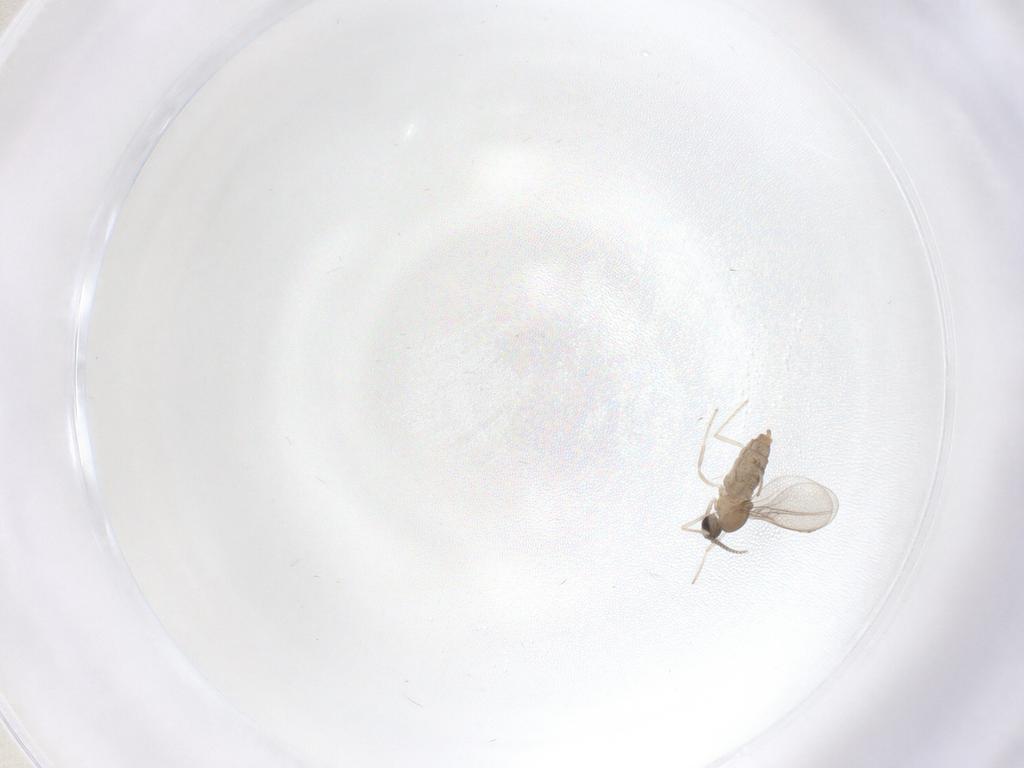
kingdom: Animalia
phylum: Arthropoda
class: Insecta
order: Diptera
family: Cecidomyiidae
